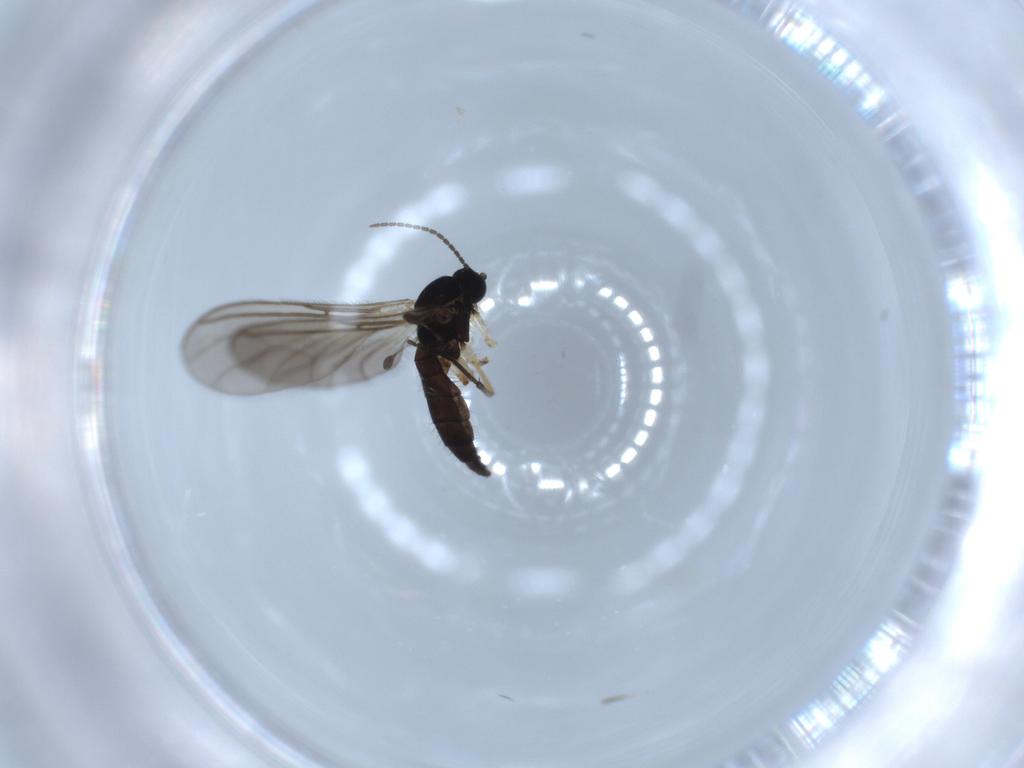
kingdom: Animalia
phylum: Arthropoda
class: Insecta
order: Diptera
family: Sciaridae
